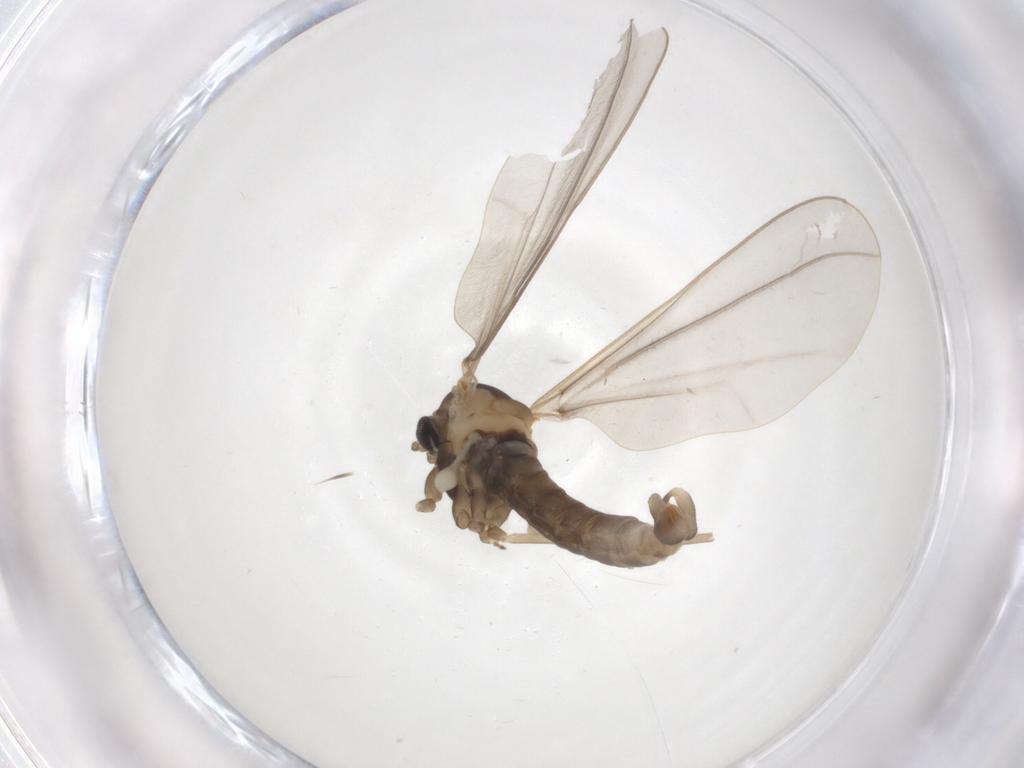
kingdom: Animalia
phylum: Arthropoda
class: Insecta
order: Diptera
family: Cecidomyiidae
